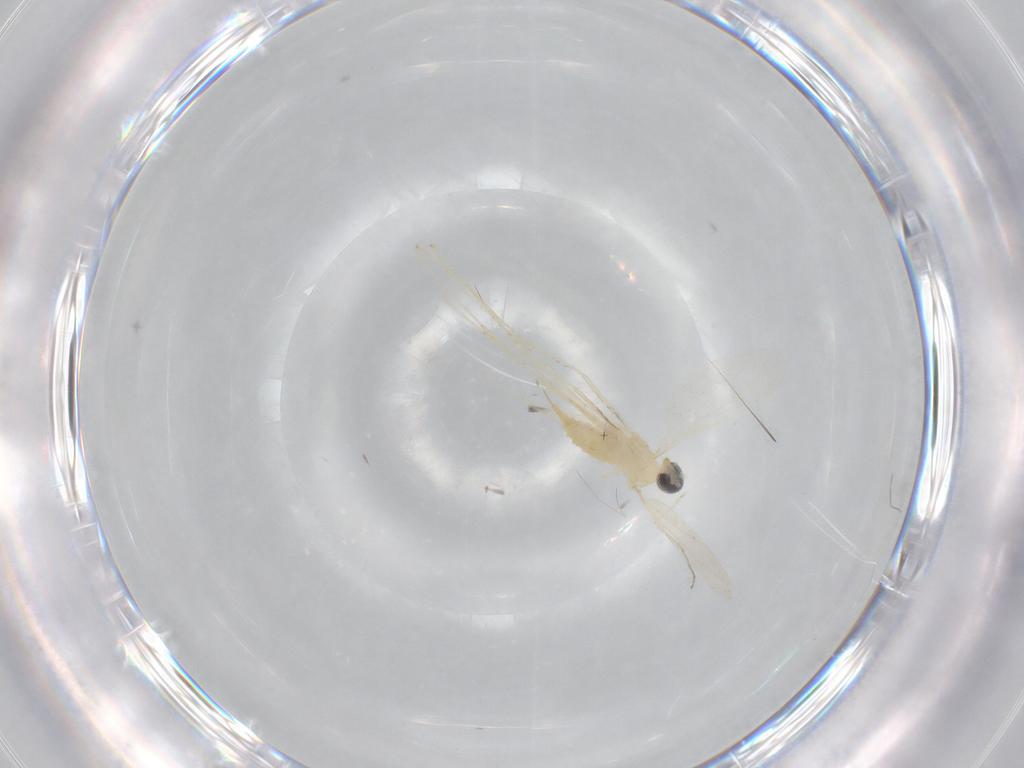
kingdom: Animalia
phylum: Arthropoda
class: Insecta
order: Diptera
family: Cecidomyiidae
